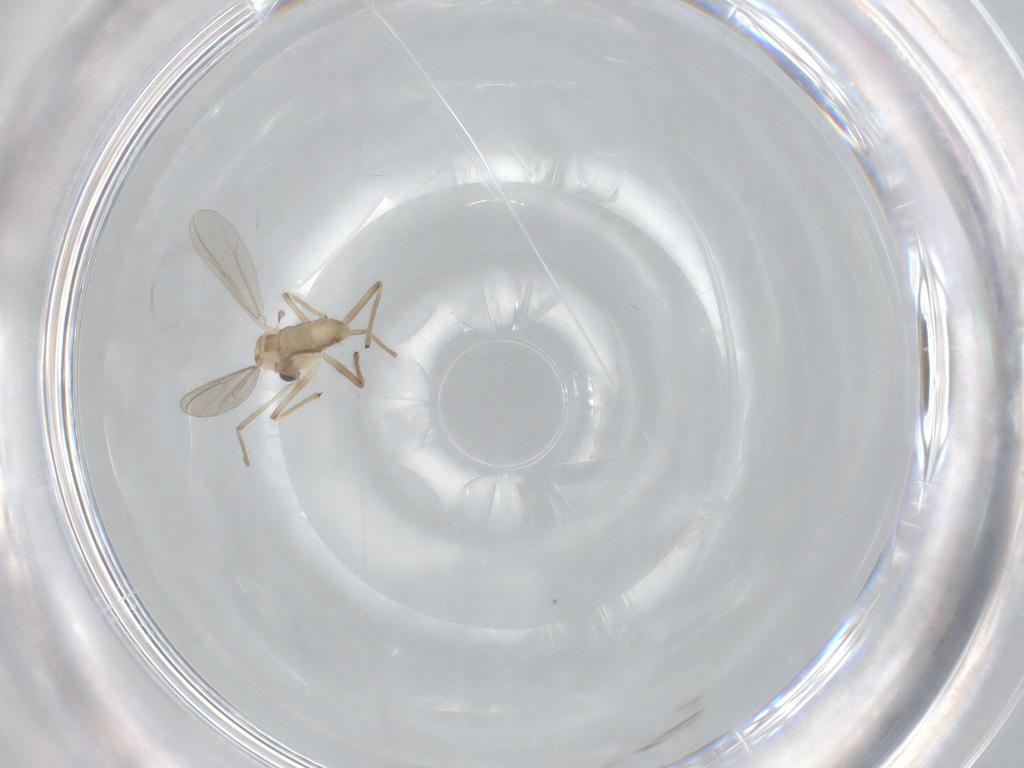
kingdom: Animalia
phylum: Arthropoda
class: Insecta
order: Diptera
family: Chironomidae
